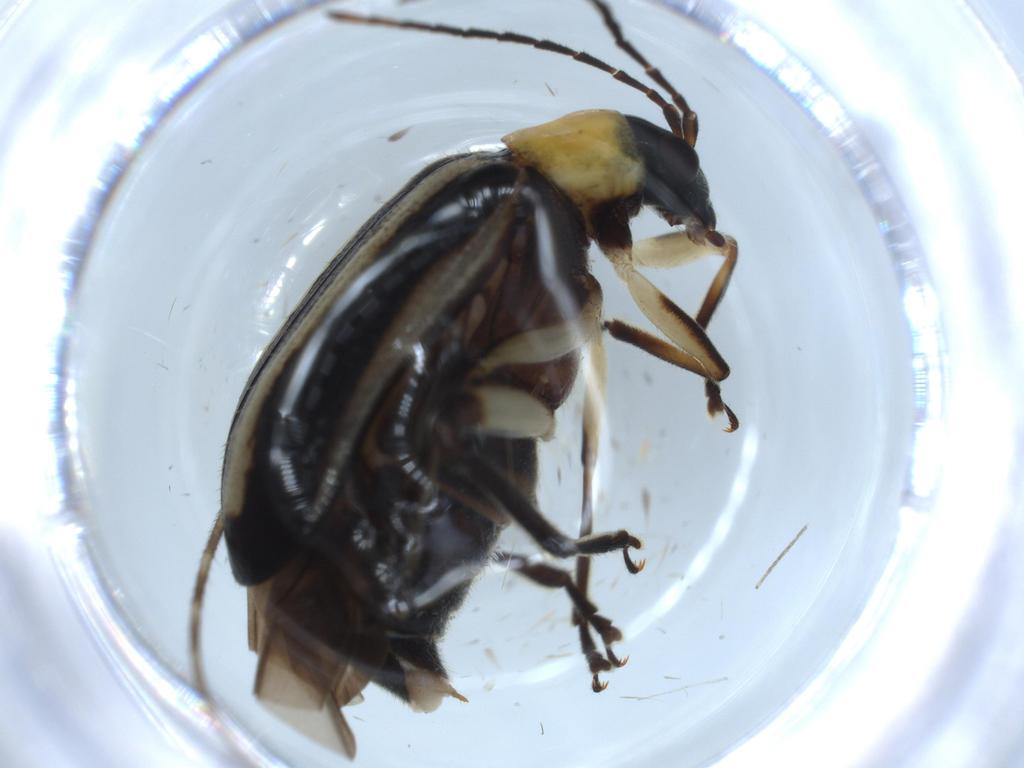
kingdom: Animalia
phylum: Arthropoda
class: Insecta
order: Coleoptera
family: Chrysomelidae
